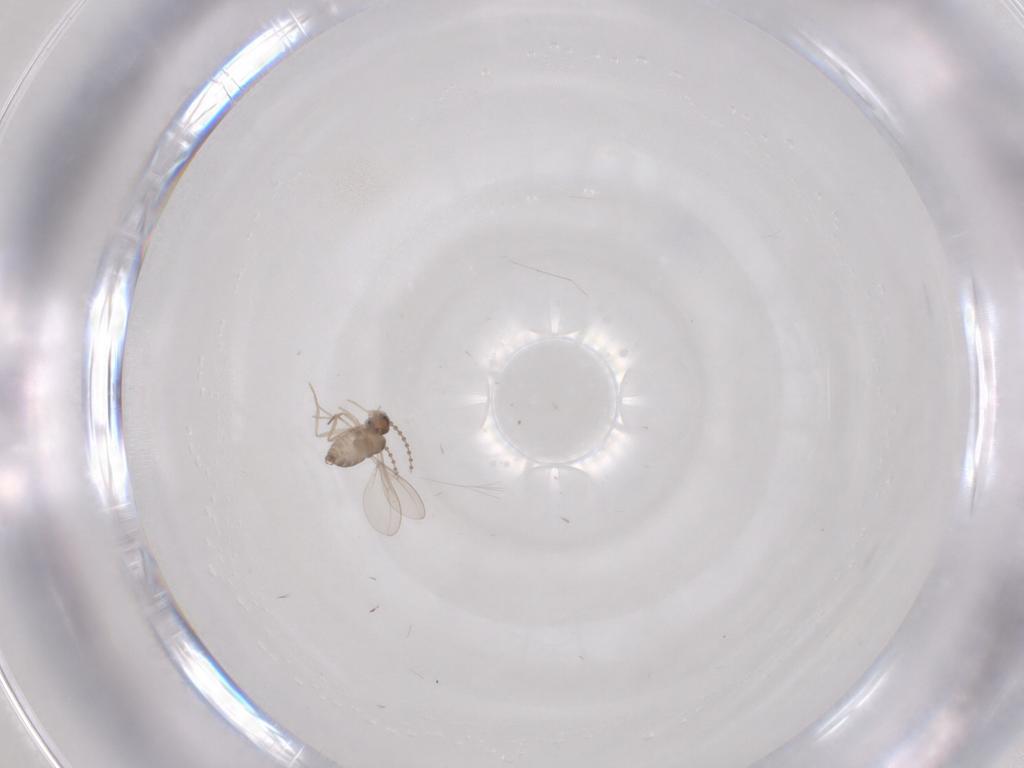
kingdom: Animalia
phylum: Arthropoda
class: Insecta
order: Diptera
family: Cecidomyiidae
